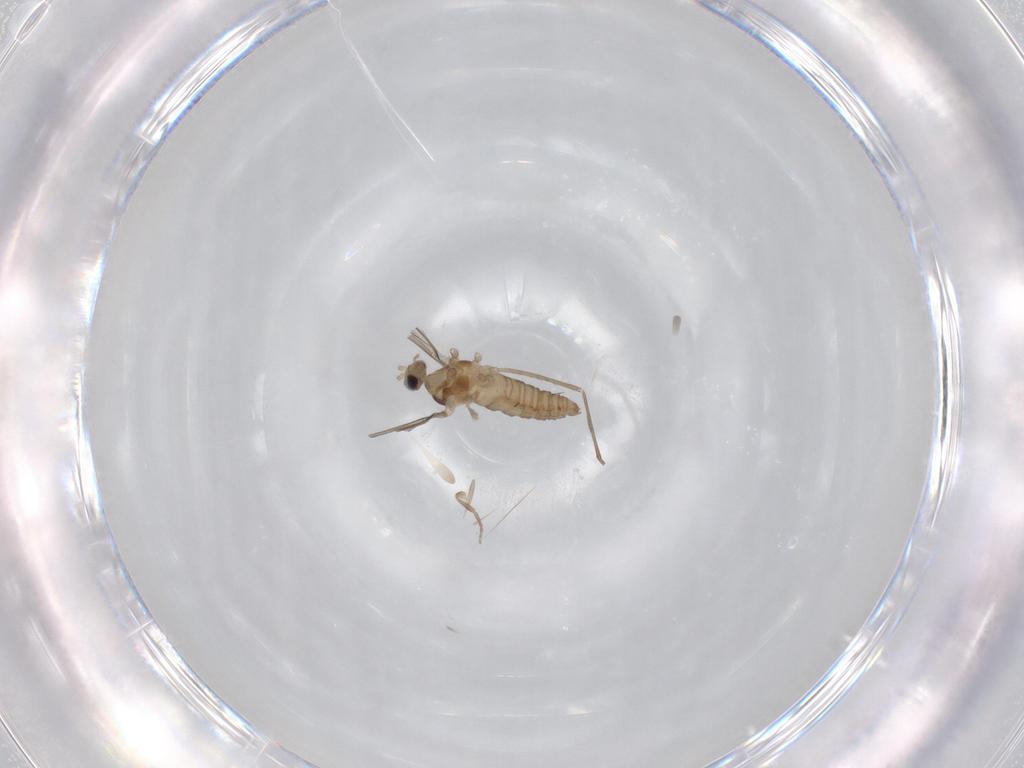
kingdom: Animalia
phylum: Arthropoda
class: Insecta
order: Diptera
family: Cecidomyiidae
